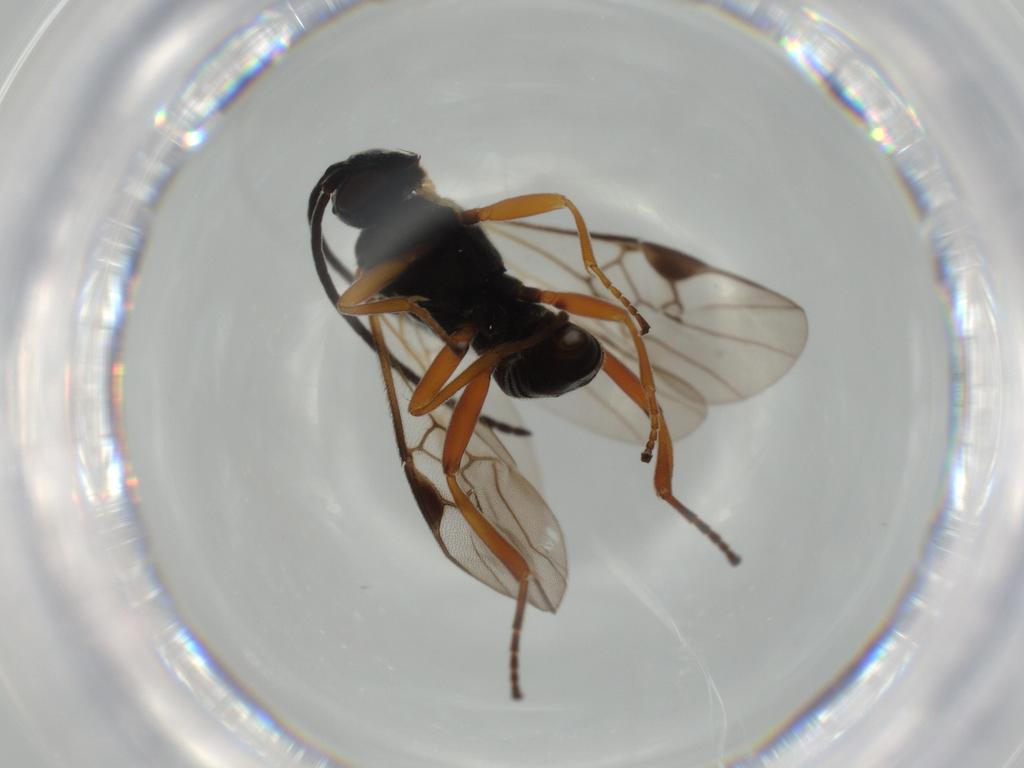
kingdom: Animalia
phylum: Arthropoda
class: Insecta
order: Hymenoptera
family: Braconidae
